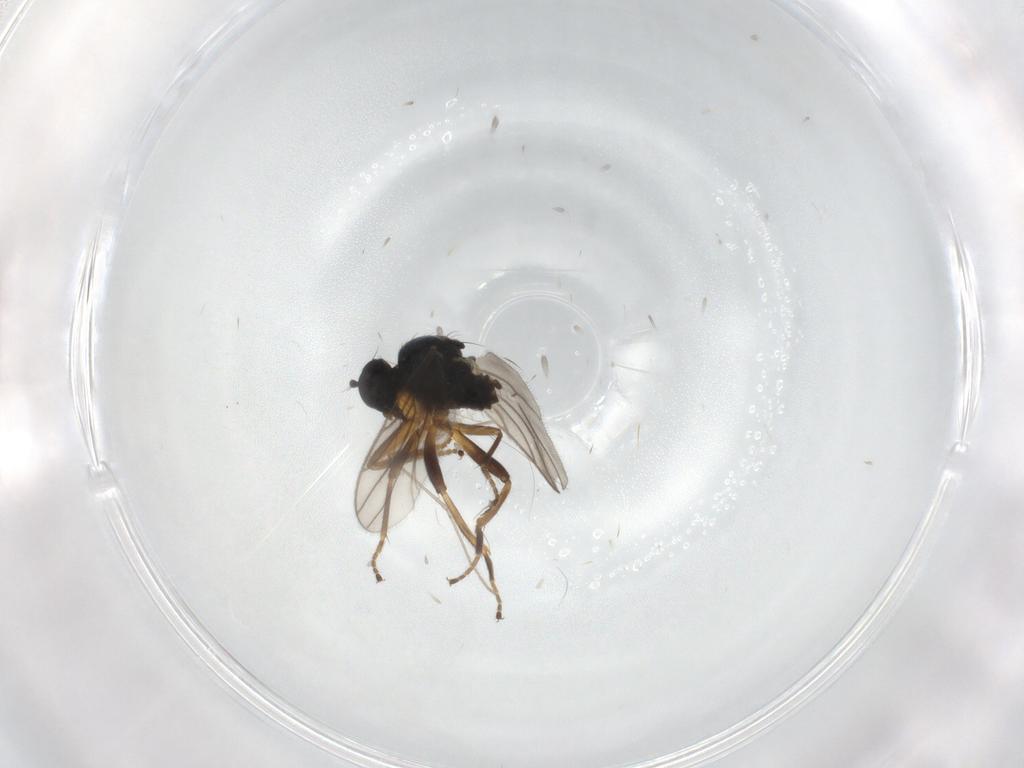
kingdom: Animalia
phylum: Arthropoda
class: Insecta
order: Diptera
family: Hybotidae
